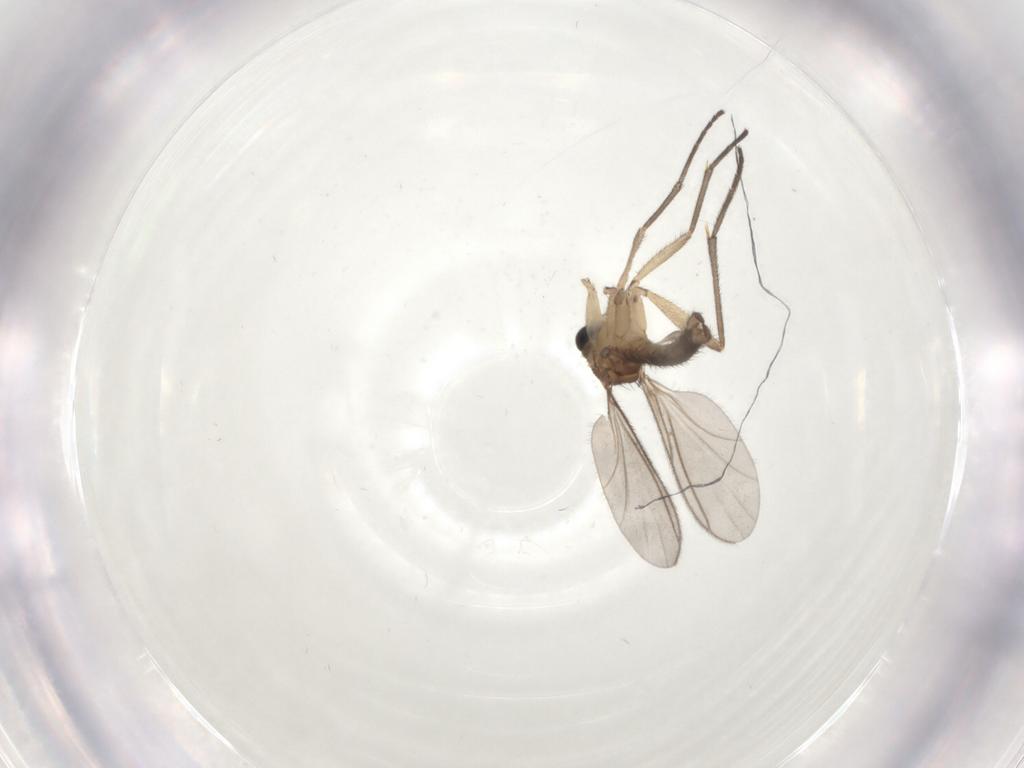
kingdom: Animalia
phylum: Arthropoda
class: Insecta
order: Diptera
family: Sciaridae
